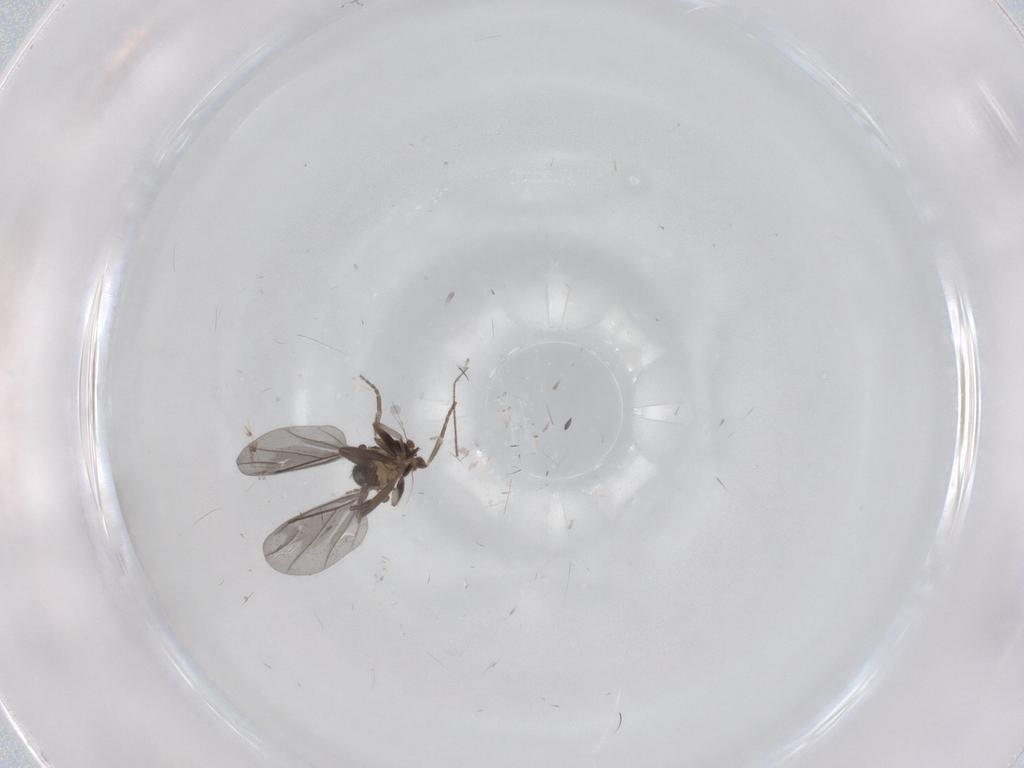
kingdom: Animalia
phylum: Arthropoda
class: Insecta
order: Diptera
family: Phoridae
